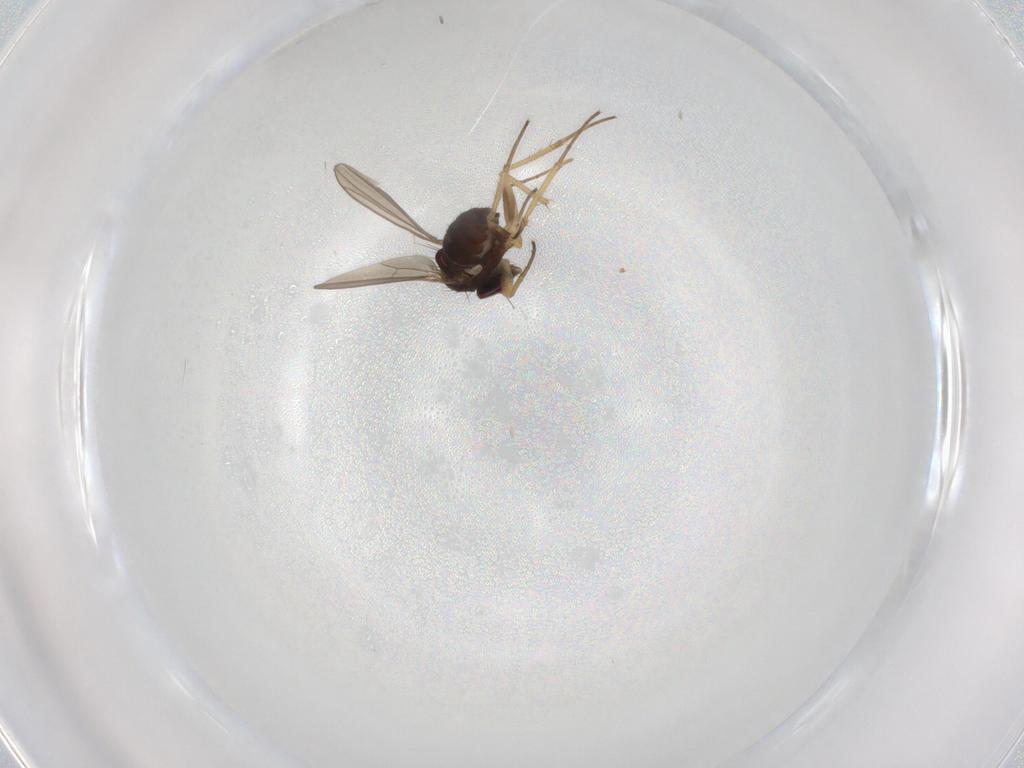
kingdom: Animalia
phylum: Arthropoda
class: Insecta
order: Diptera
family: Dolichopodidae
